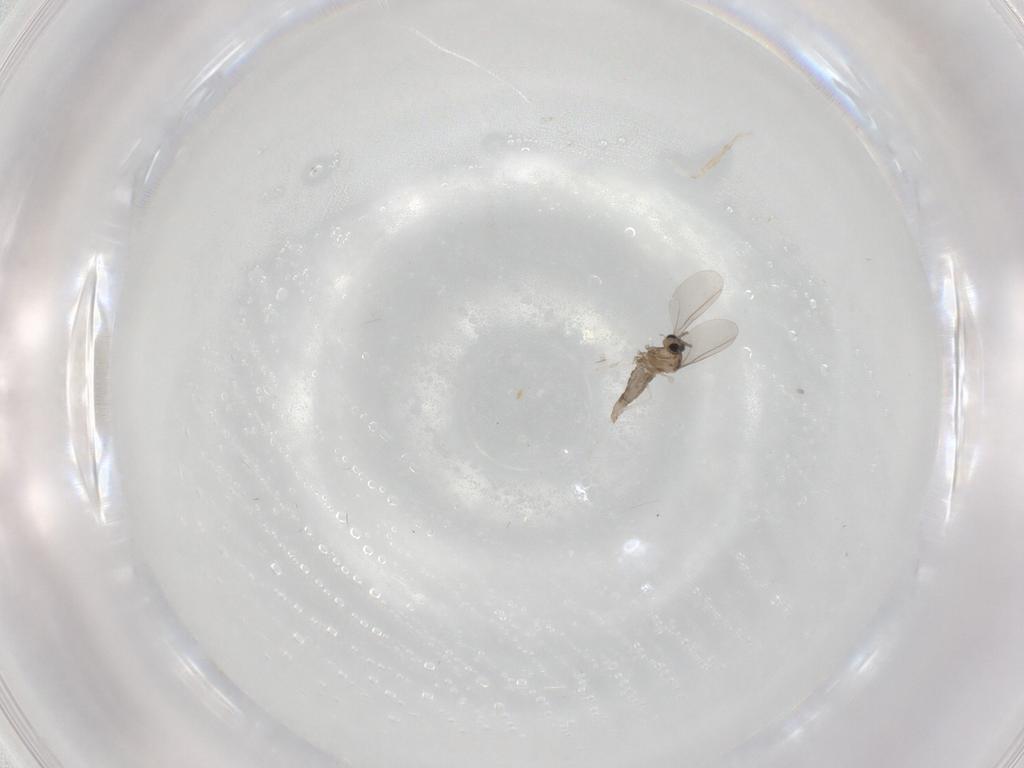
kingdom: Animalia
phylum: Arthropoda
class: Insecta
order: Diptera
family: Cecidomyiidae
